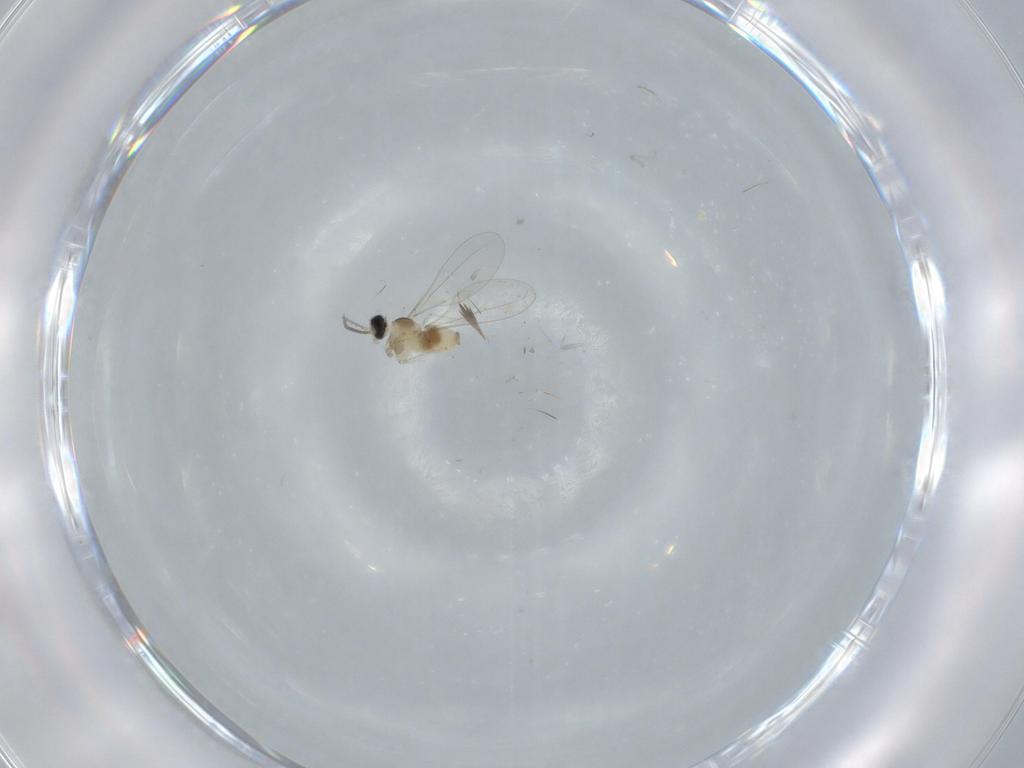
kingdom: Animalia
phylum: Arthropoda
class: Insecta
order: Diptera
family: Cecidomyiidae
